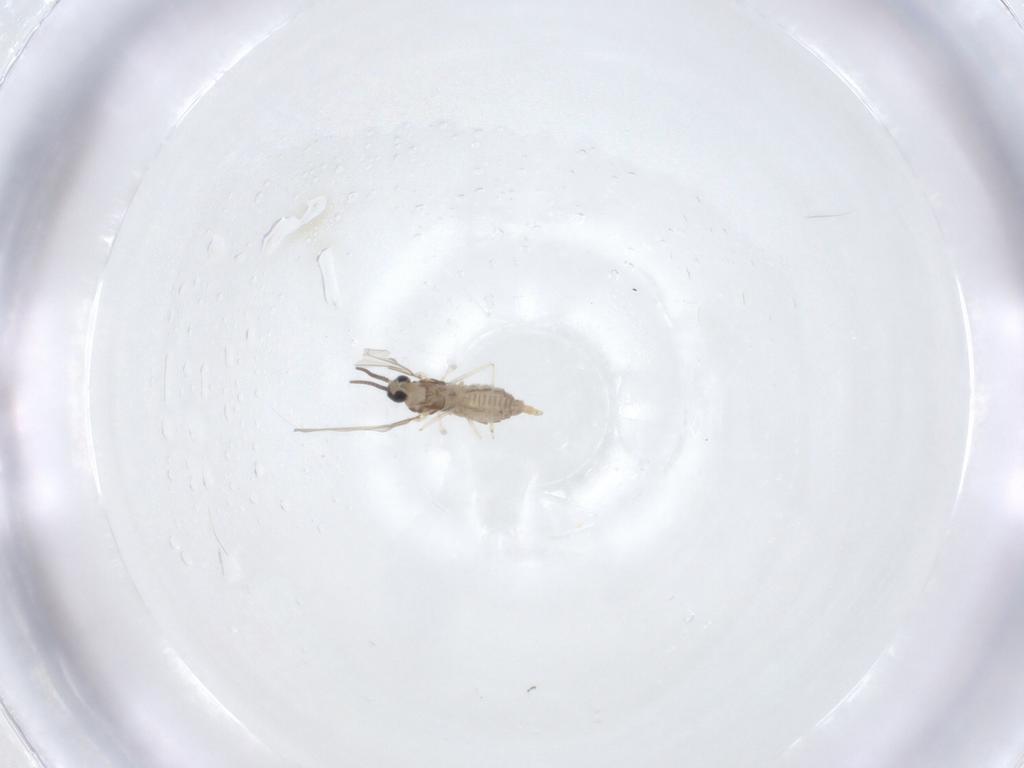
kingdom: Animalia
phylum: Arthropoda
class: Insecta
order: Diptera
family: Cecidomyiidae
